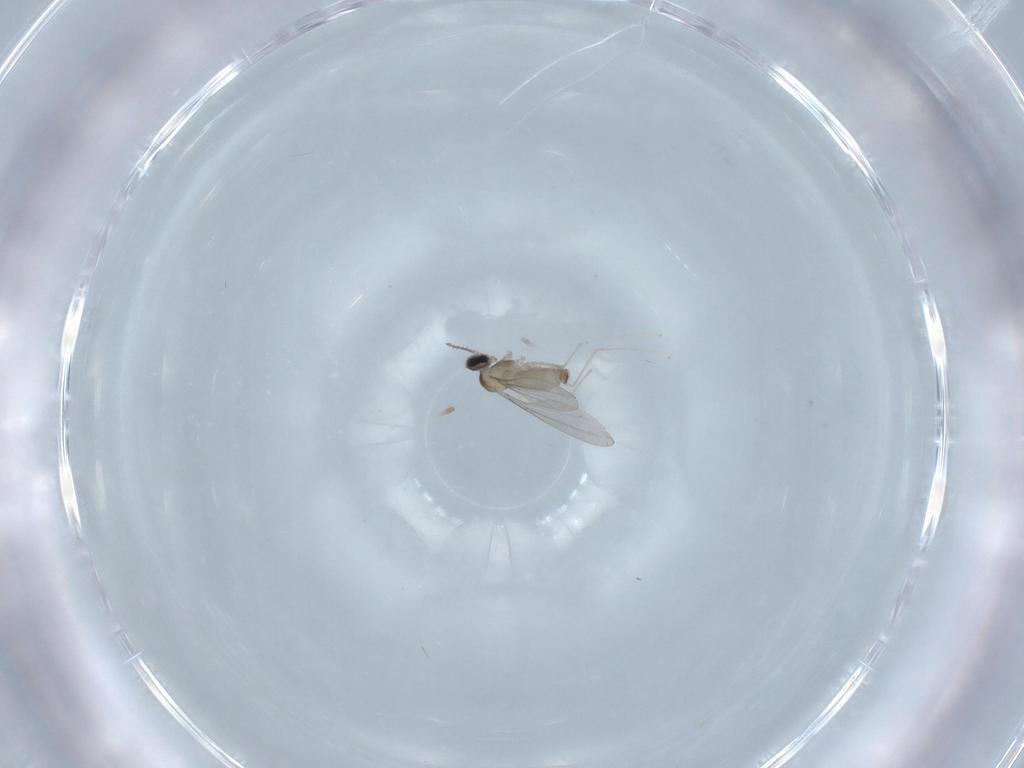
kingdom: Animalia
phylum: Arthropoda
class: Insecta
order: Diptera
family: Cecidomyiidae
